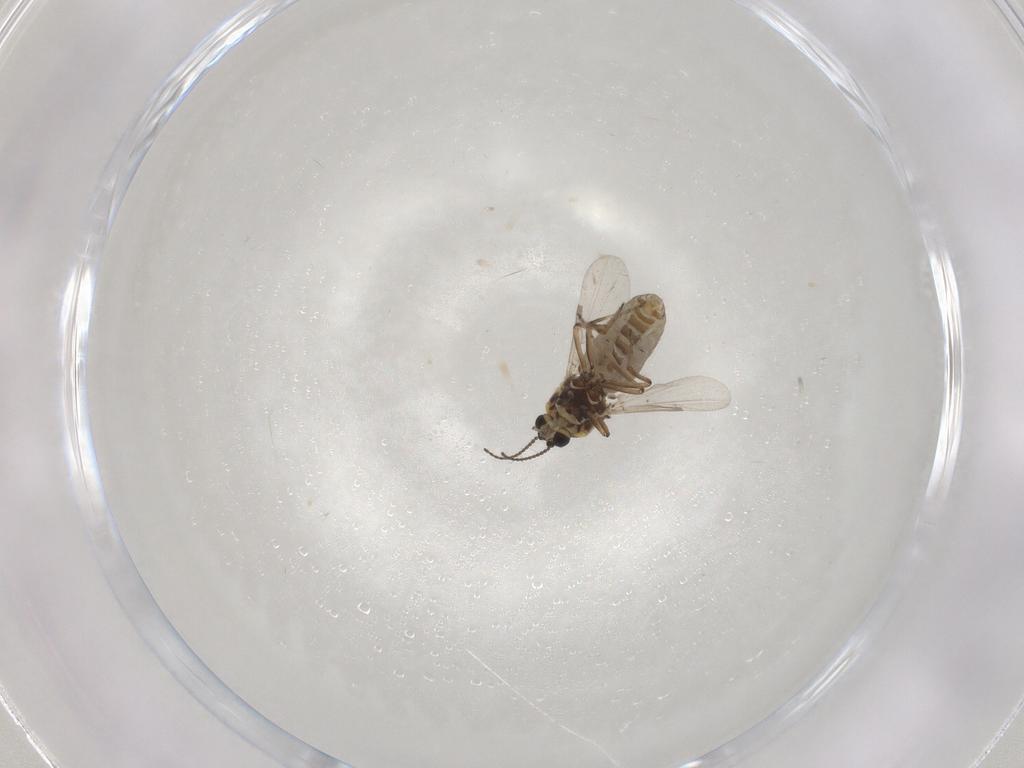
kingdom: Animalia
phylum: Arthropoda
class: Insecta
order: Diptera
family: Ceratopogonidae
